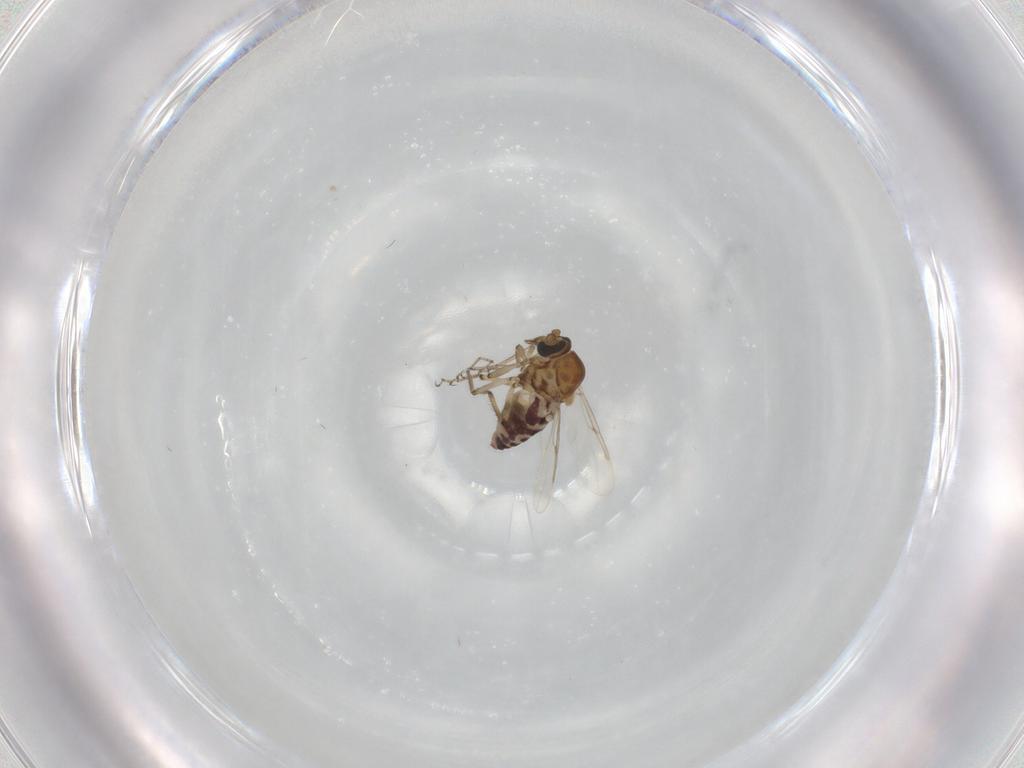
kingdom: Animalia
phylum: Arthropoda
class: Insecta
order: Diptera
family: Ceratopogonidae
